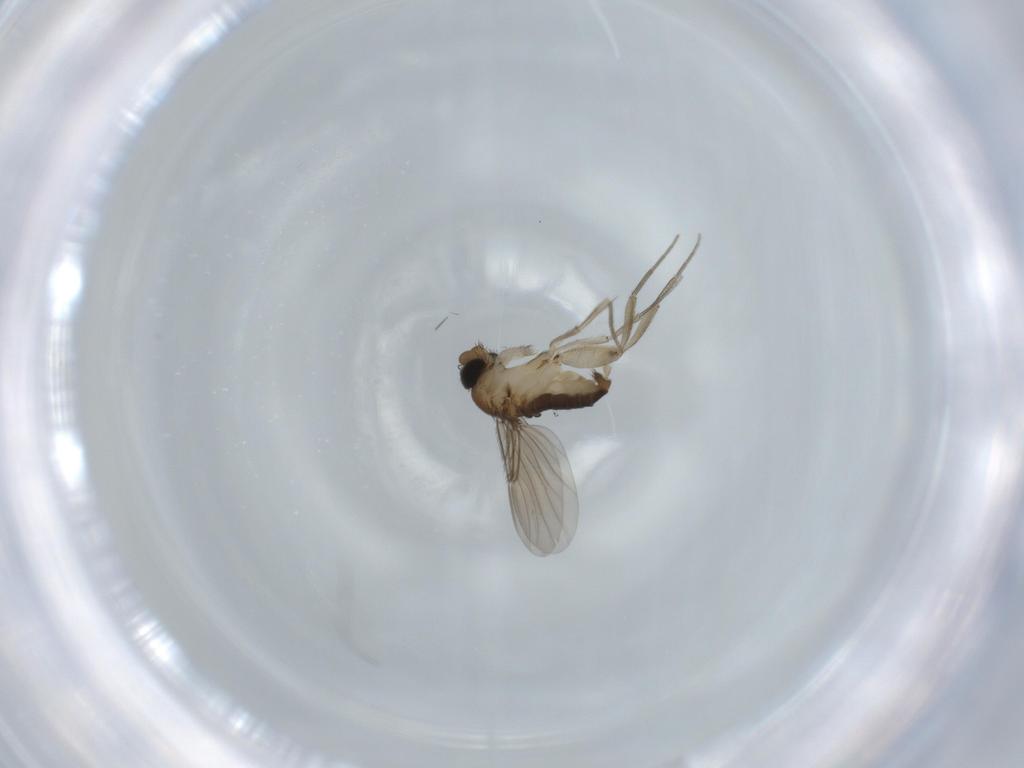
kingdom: Animalia
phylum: Arthropoda
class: Insecta
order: Diptera
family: Phoridae
